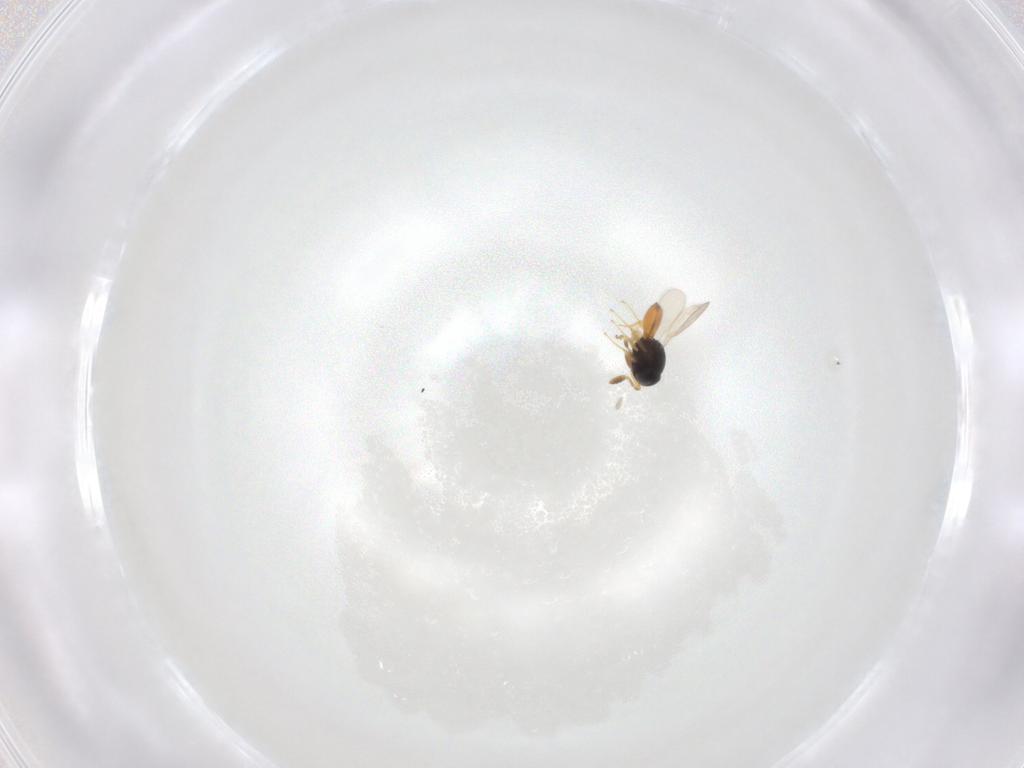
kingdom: Animalia
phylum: Arthropoda
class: Insecta
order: Hymenoptera
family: Scelionidae
